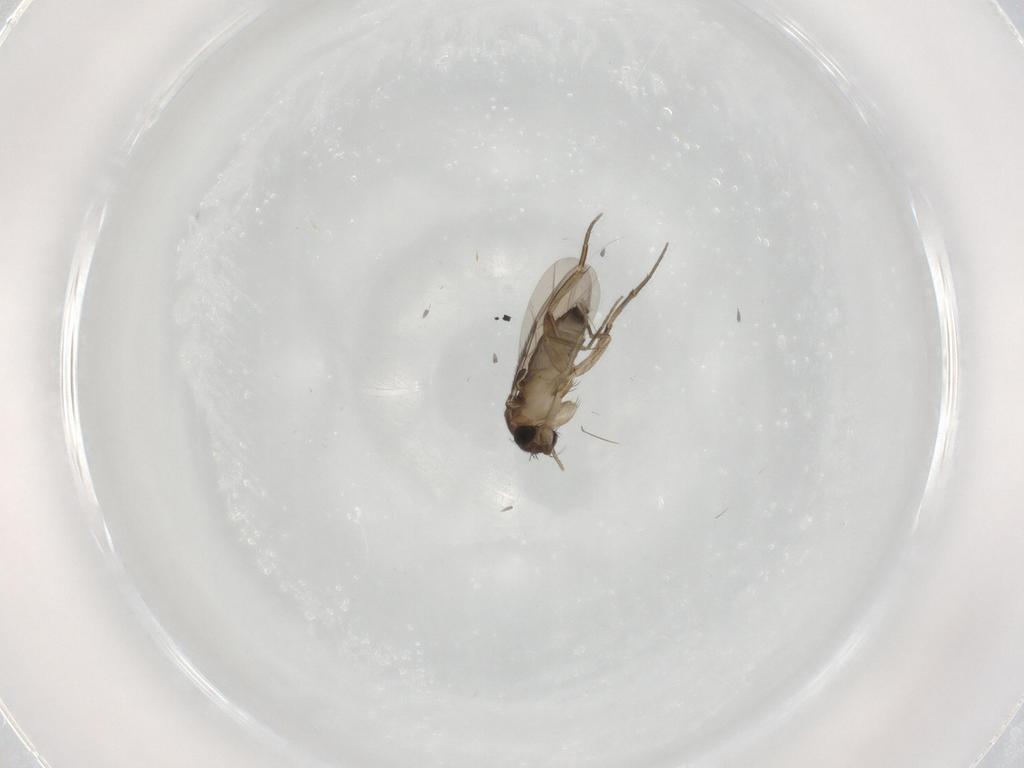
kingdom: Animalia
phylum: Arthropoda
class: Insecta
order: Diptera
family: Phoridae
